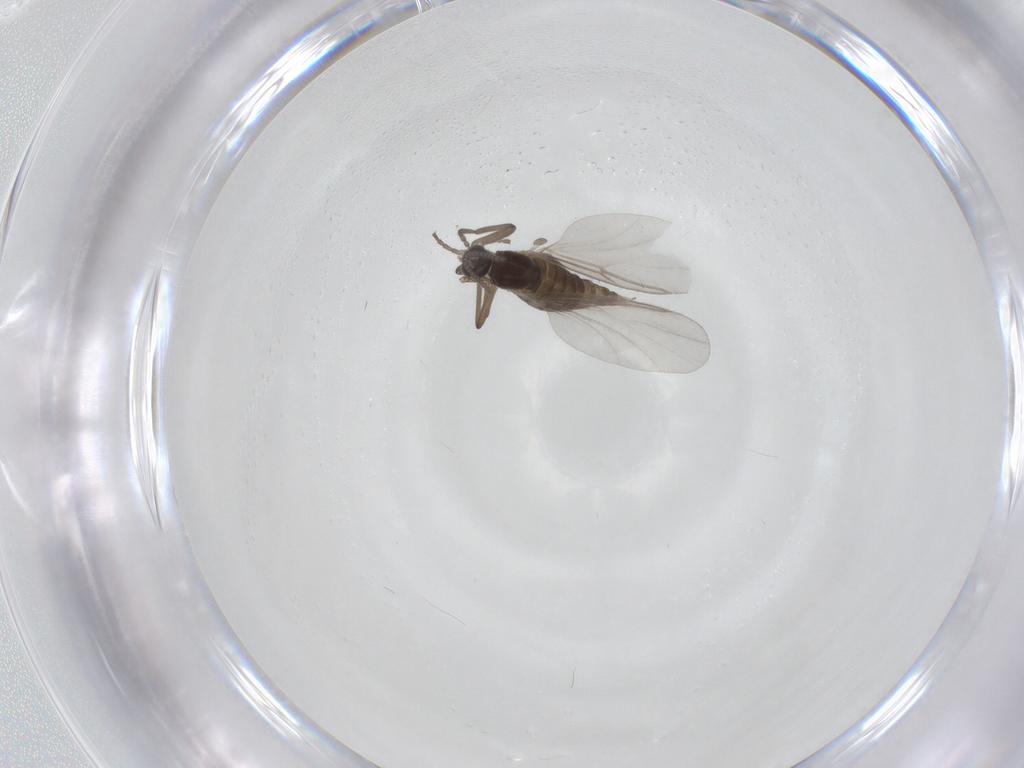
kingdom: Animalia
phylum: Arthropoda
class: Insecta
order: Diptera
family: Cecidomyiidae
